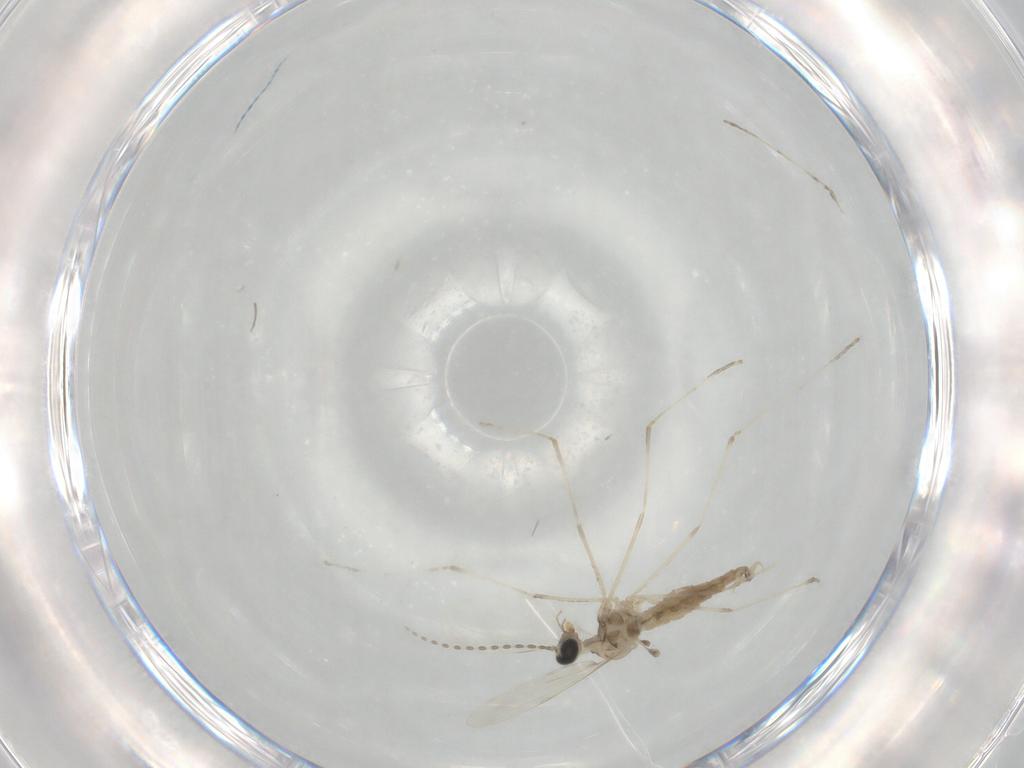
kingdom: Animalia
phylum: Arthropoda
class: Insecta
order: Diptera
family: Cecidomyiidae
